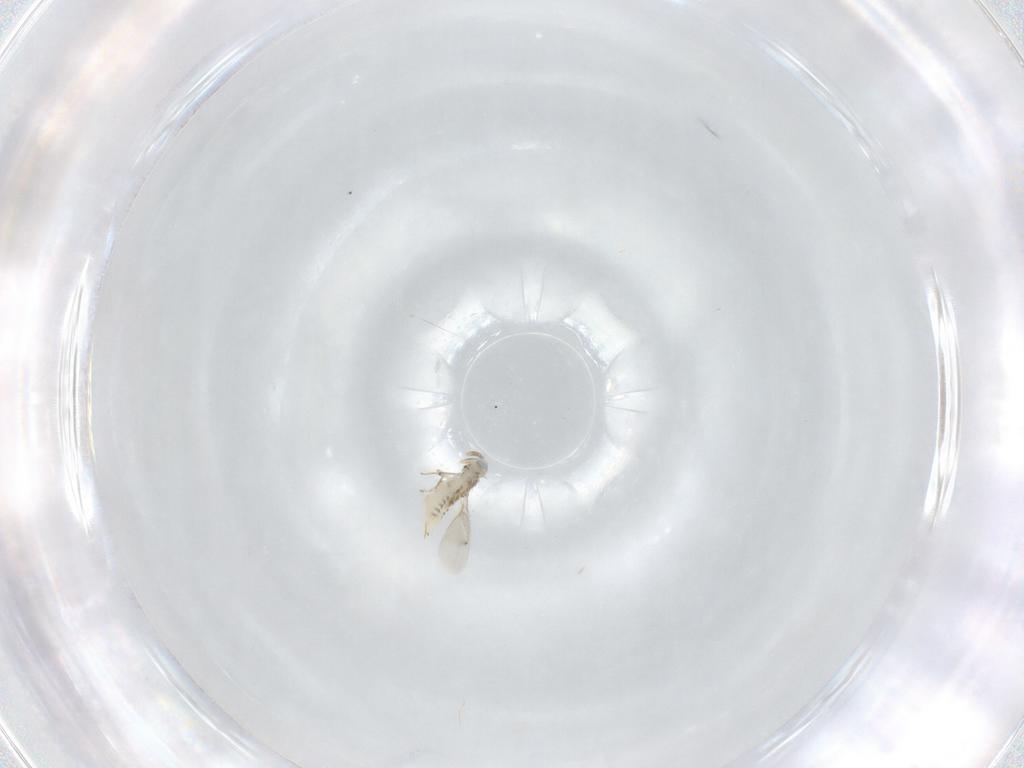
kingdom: Animalia
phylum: Arthropoda
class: Insecta
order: Hymenoptera
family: Aphelinidae
